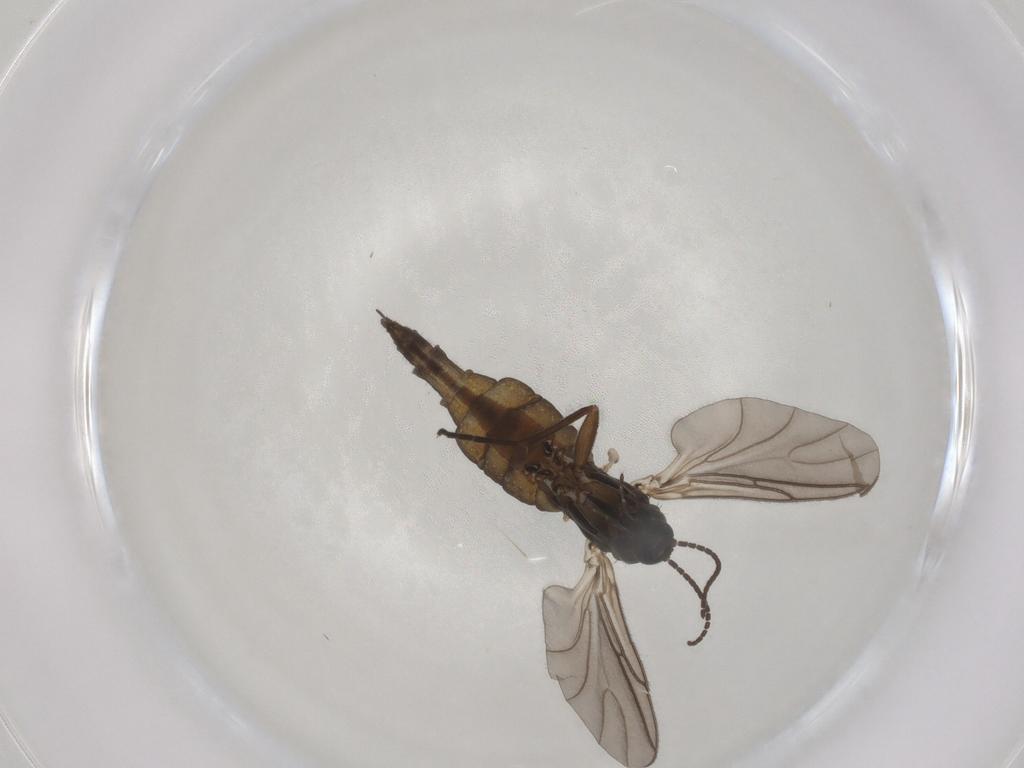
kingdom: Animalia
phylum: Arthropoda
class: Insecta
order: Diptera
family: Sciaridae
